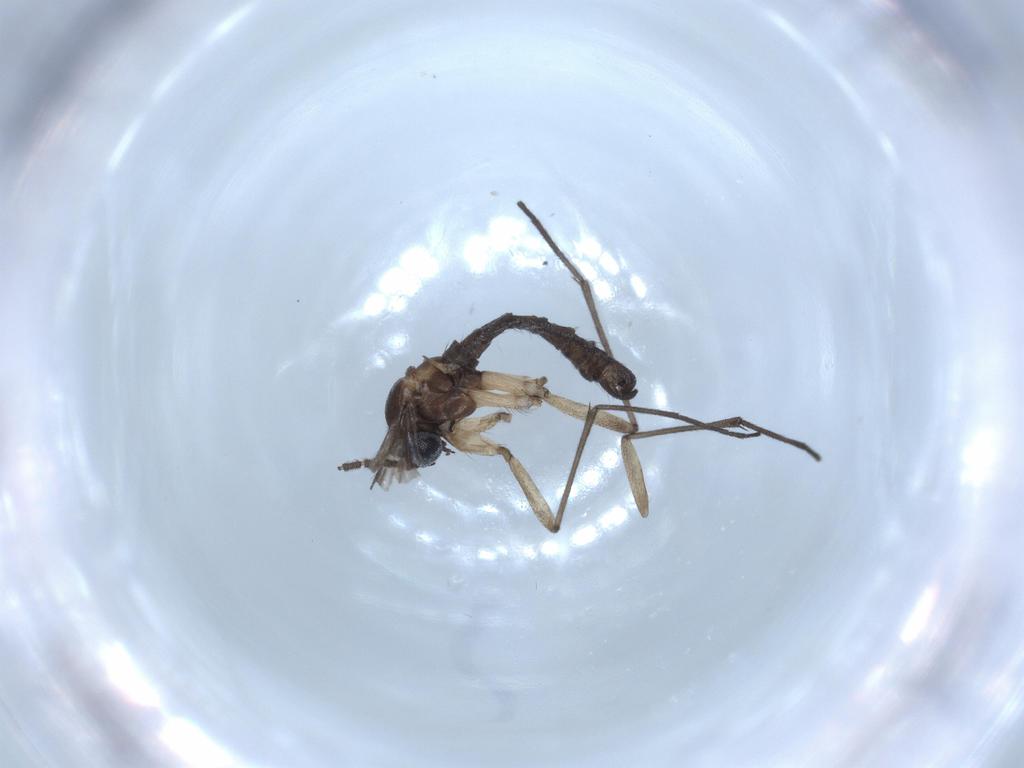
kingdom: Animalia
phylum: Arthropoda
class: Insecta
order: Diptera
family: Sciaridae
